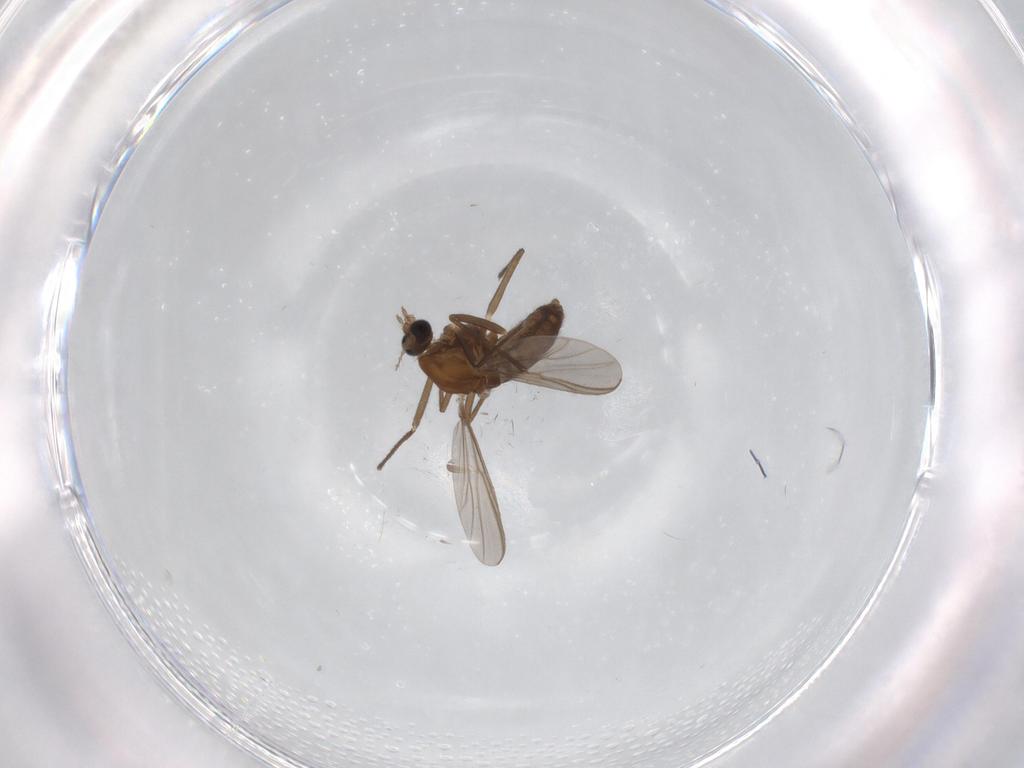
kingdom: Animalia
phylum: Arthropoda
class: Insecta
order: Diptera
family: Chironomidae
